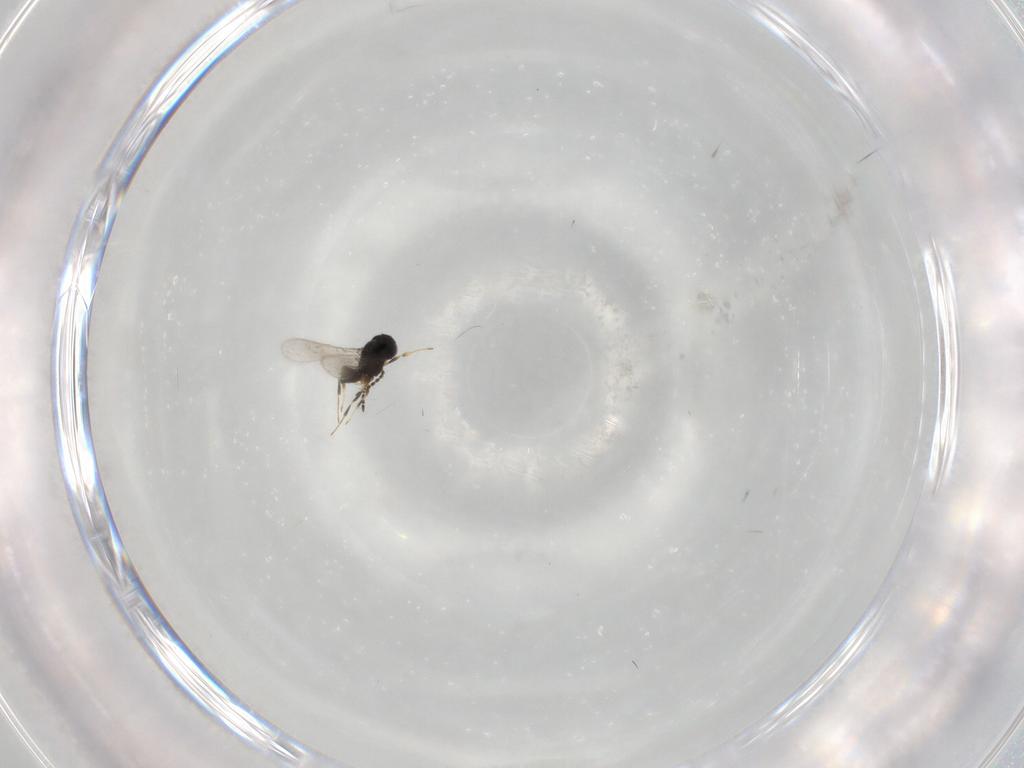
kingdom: Animalia
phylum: Arthropoda
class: Insecta
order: Hymenoptera
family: Scelionidae
